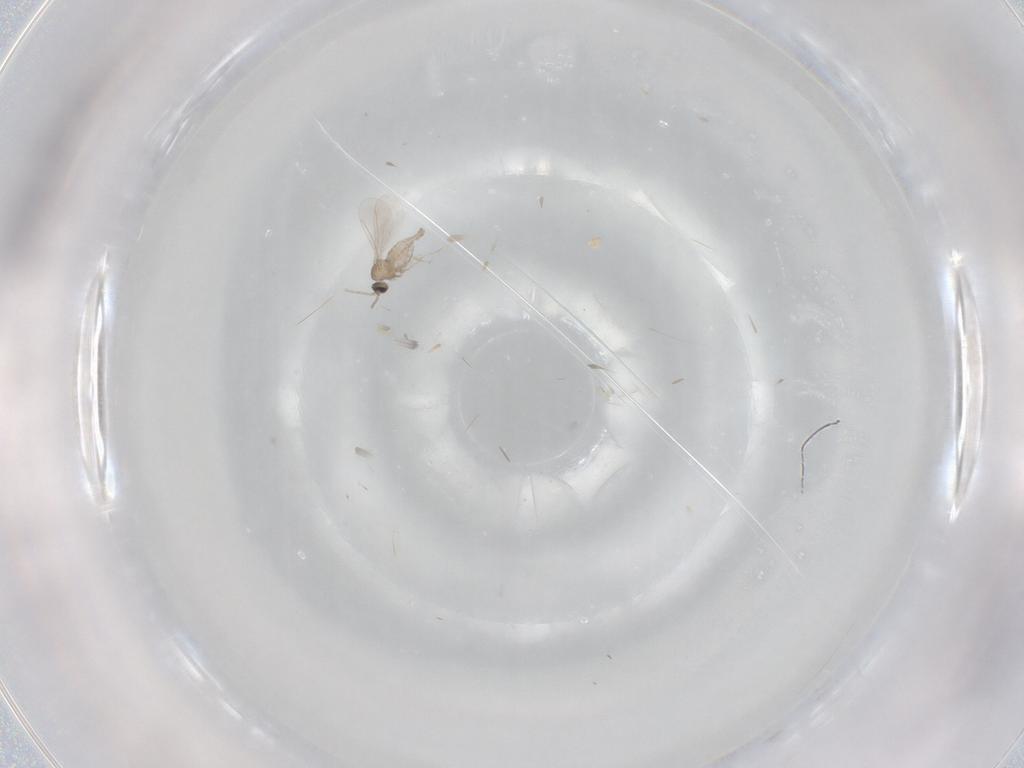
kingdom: Animalia
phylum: Arthropoda
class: Insecta
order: Diptera
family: Cecidomyiidae
